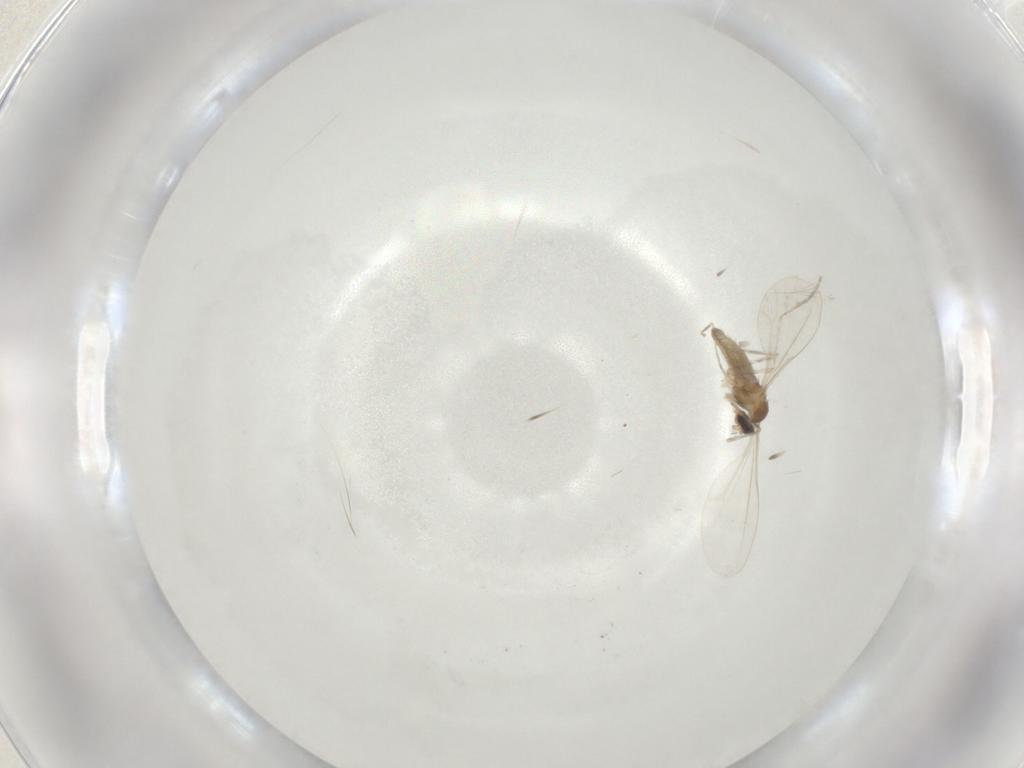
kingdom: Animalia
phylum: Arthropoda
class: Insecta
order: Diptera
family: Cecidomyiidae
